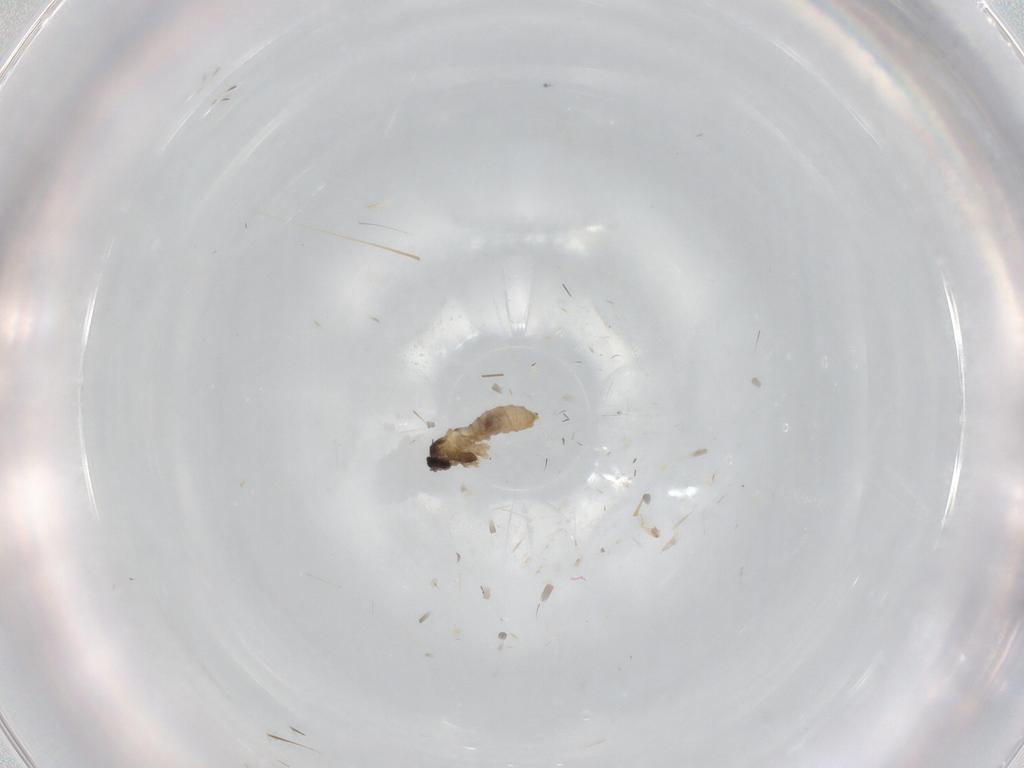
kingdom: Animalia
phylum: Arthropoda
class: Insecta
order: Diptera
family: Cecidomyiidae
